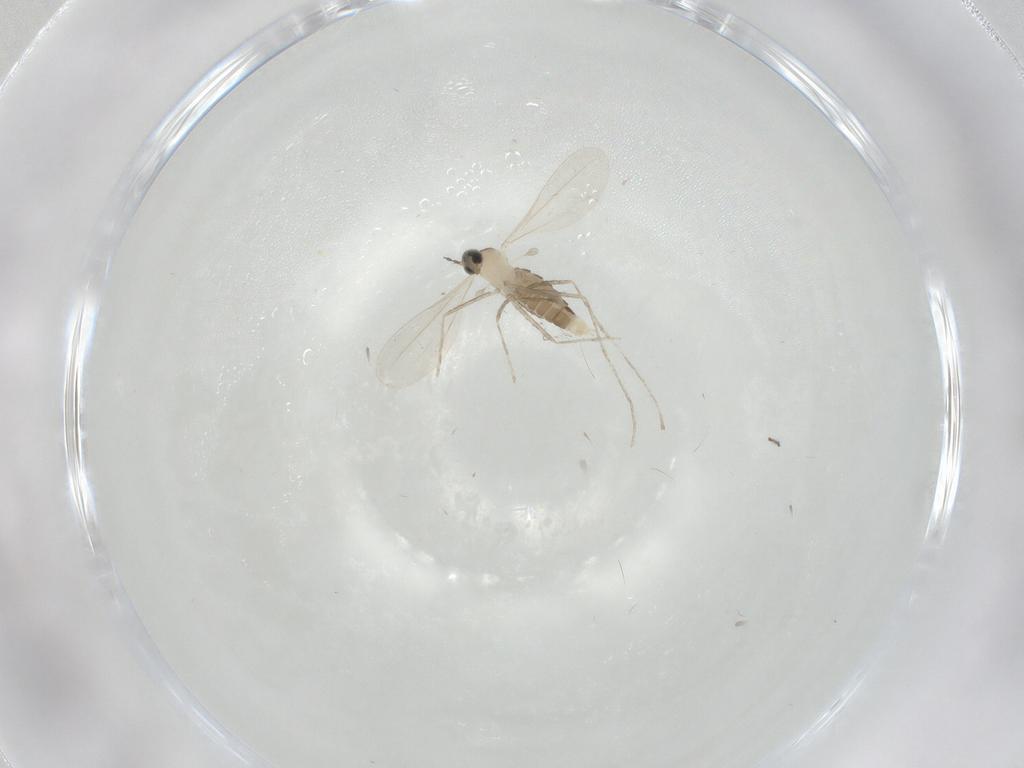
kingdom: Animalia
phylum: Arthropoda
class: Insecta
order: Diptera
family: Cecidomyiidae
